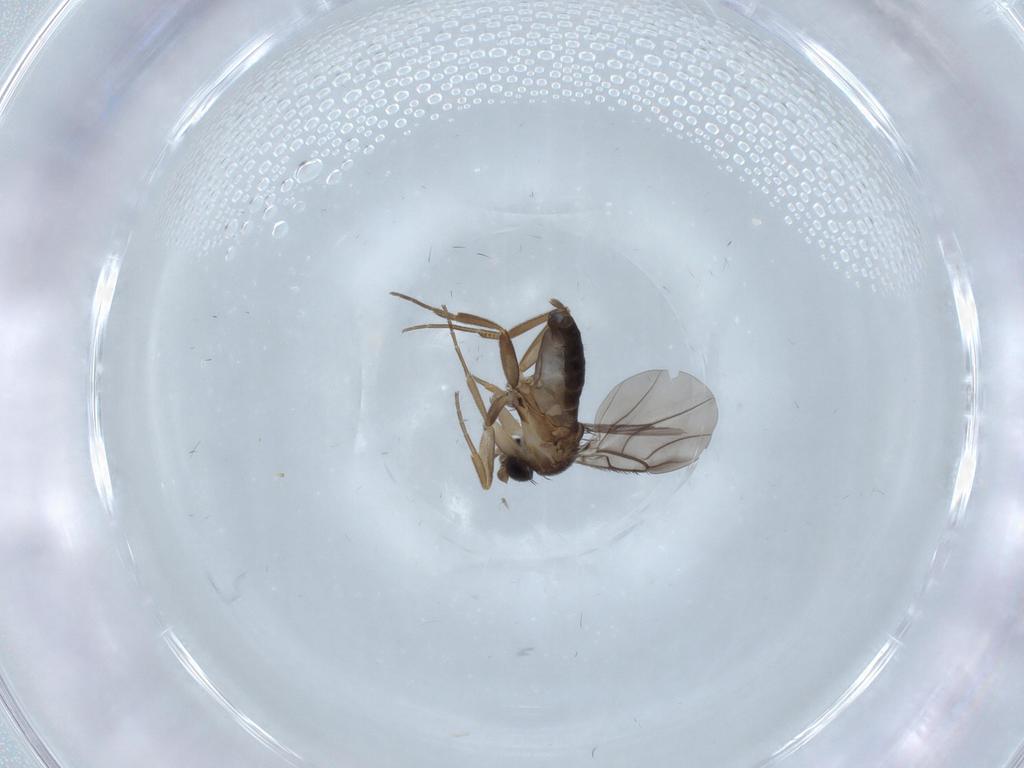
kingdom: Animalia
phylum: Arthropoda
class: Insecta
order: Diptera
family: Phoridae
